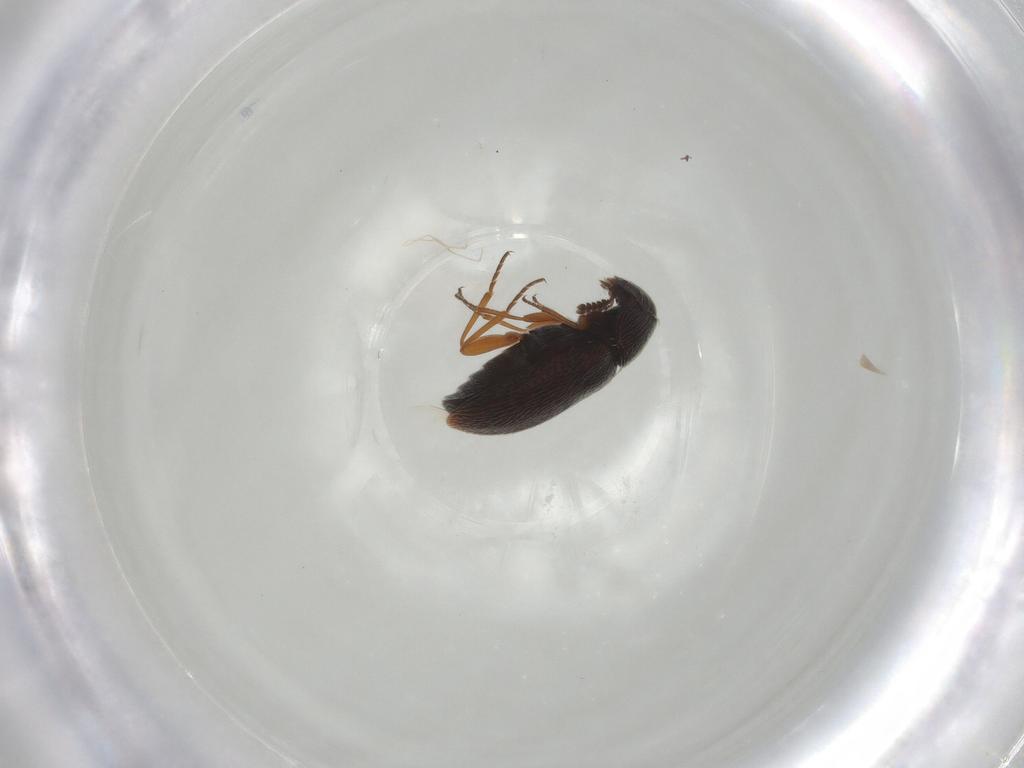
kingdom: Animalia
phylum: Arthropoda
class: Insecta
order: Coleoptera
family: Rhadalidae
